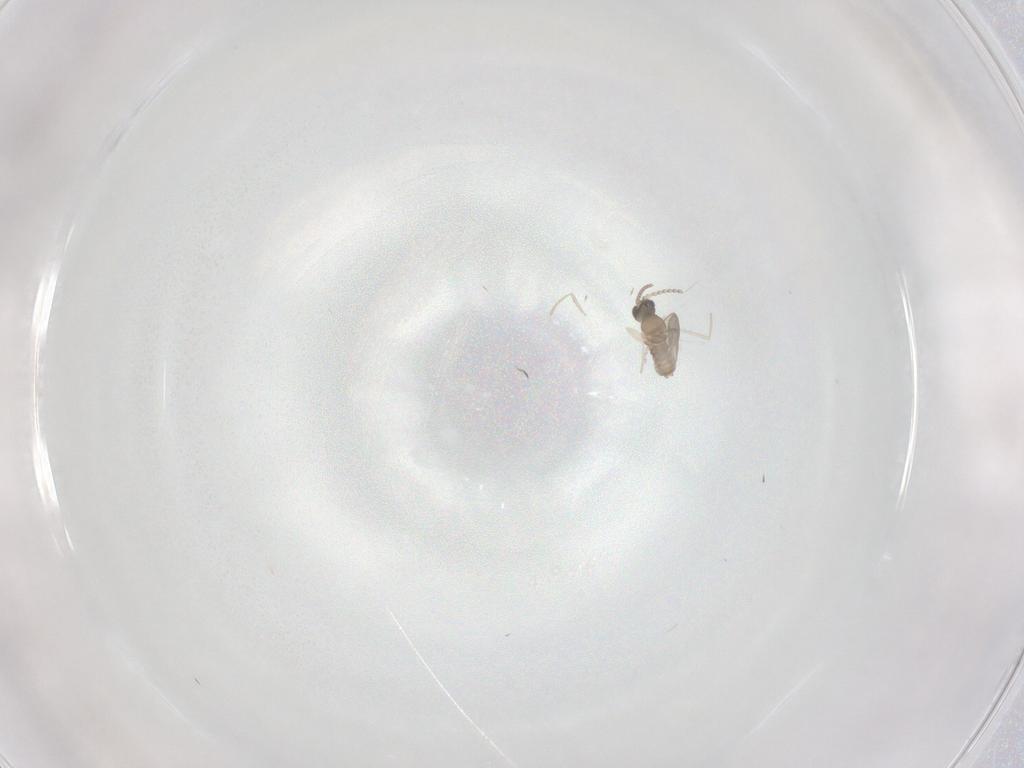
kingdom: Animalia
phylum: Arthropoda
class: Insecta
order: Diptera
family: Cecidomyiidae
